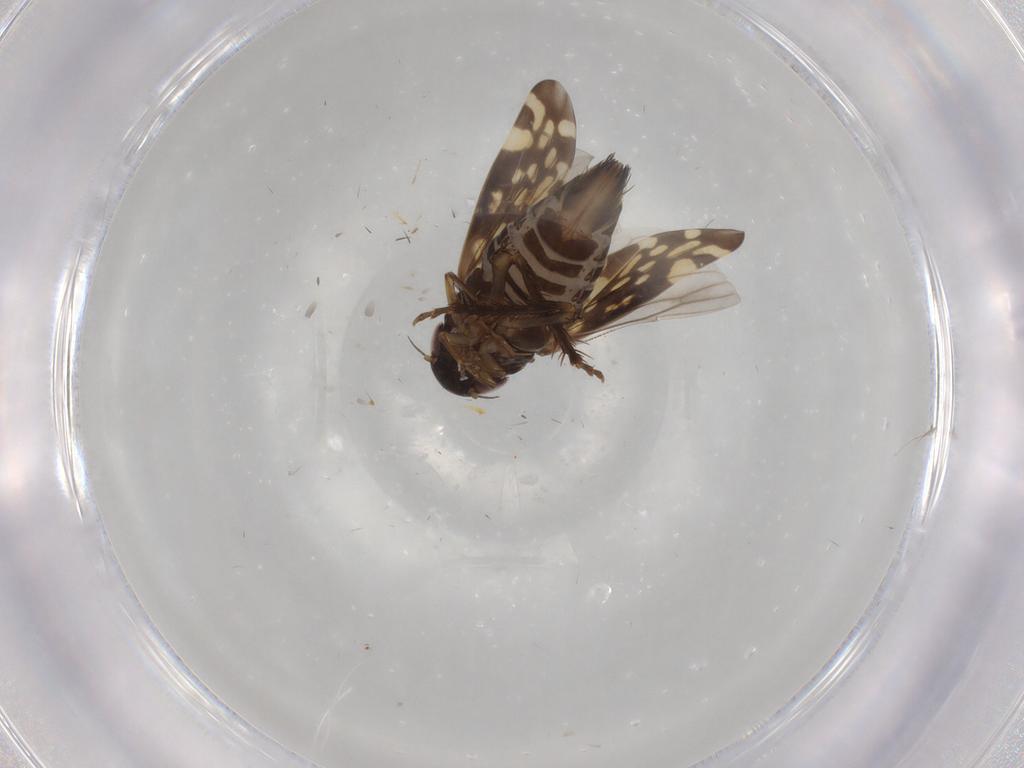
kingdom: Animalia
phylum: Arthropoda
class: Insecta
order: Hemiptera
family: Cicadellidae
